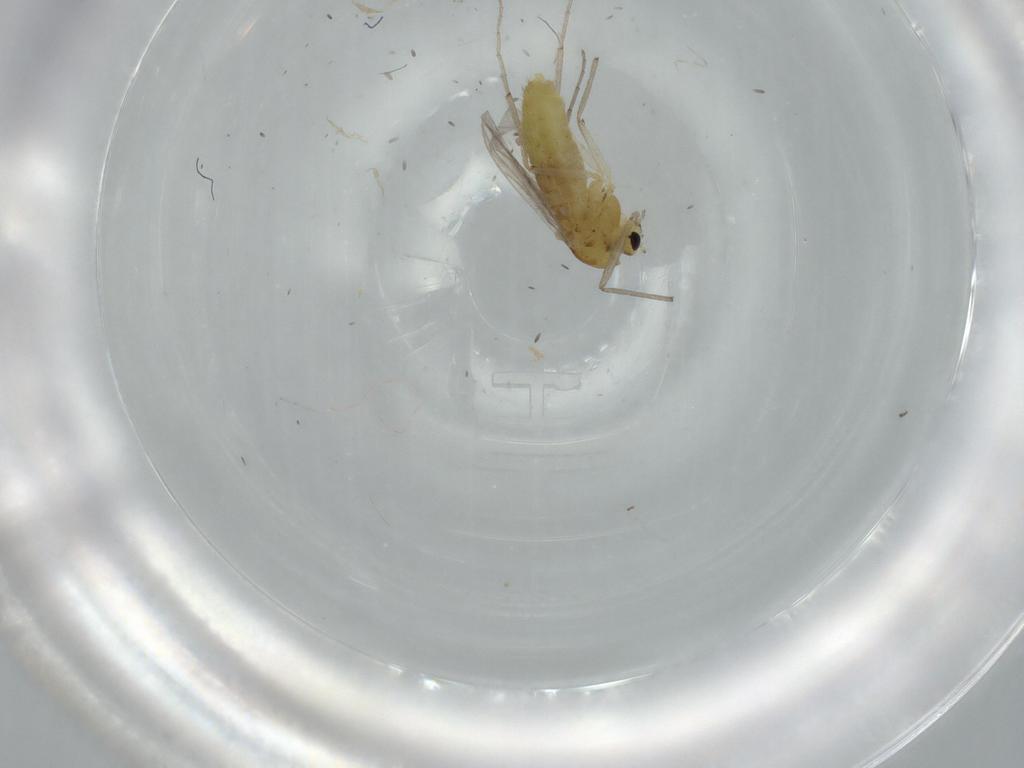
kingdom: Animalia
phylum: Arthropoda
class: Insecta
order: Diptera
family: Chironomidae
